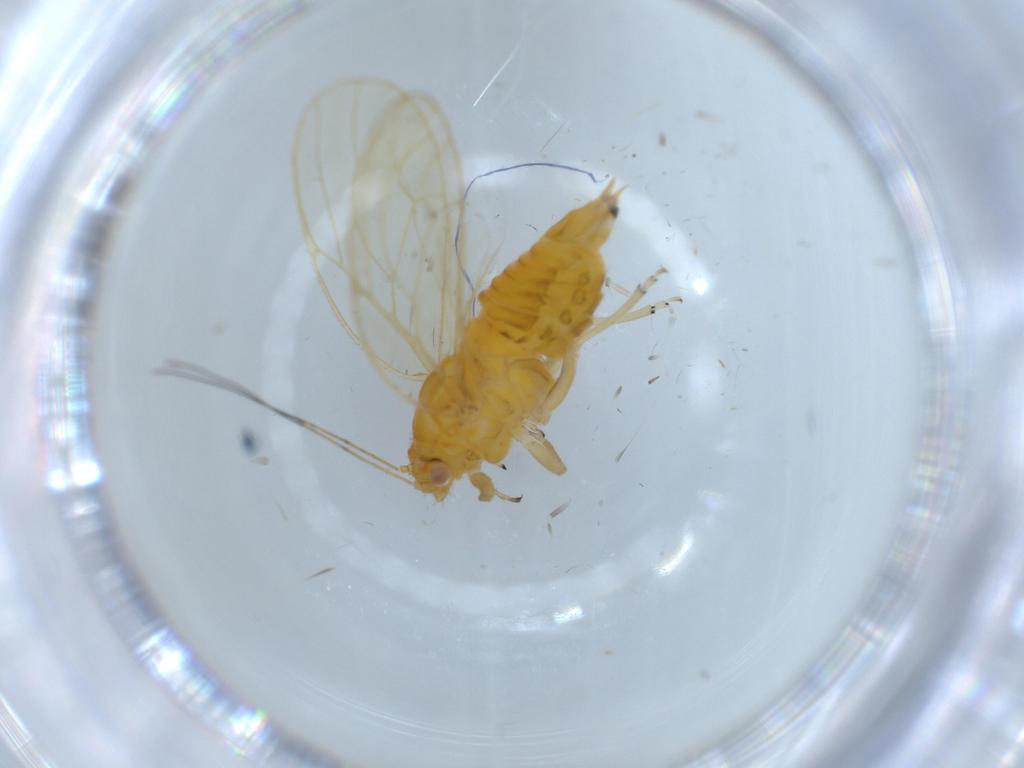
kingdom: Animalia
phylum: Arthropoda
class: Insecta
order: Hemiptera
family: Psyllidae
